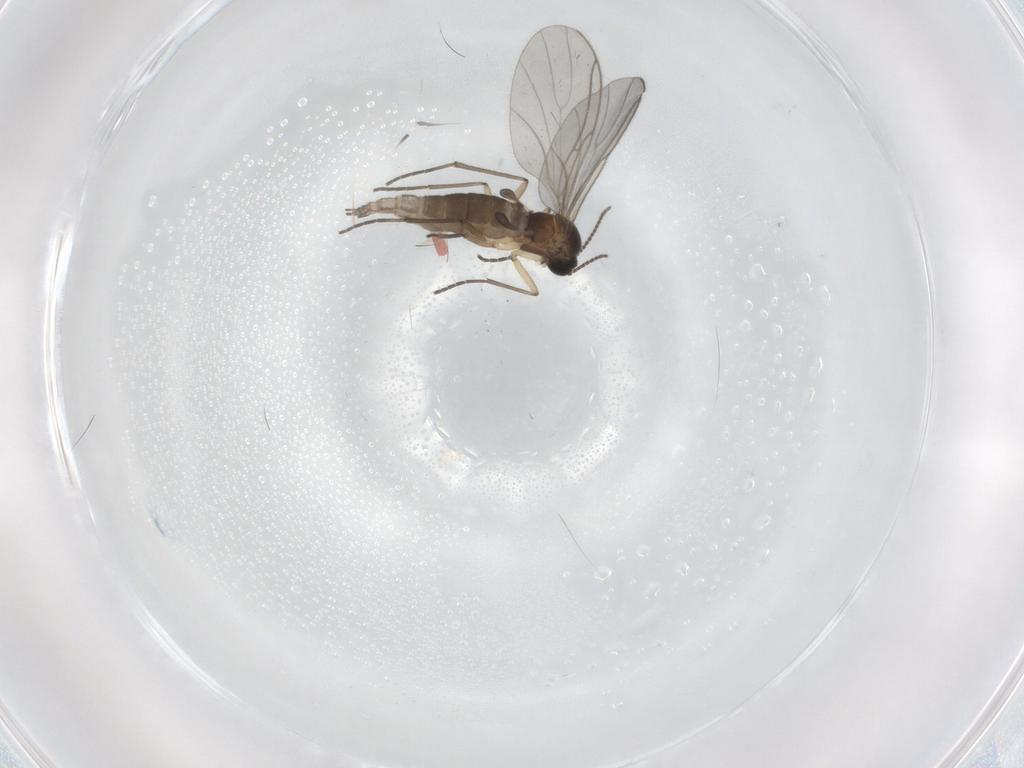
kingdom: Animalia
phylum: Arthropoda
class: Insecta
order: Diptera
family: Sciaridae
